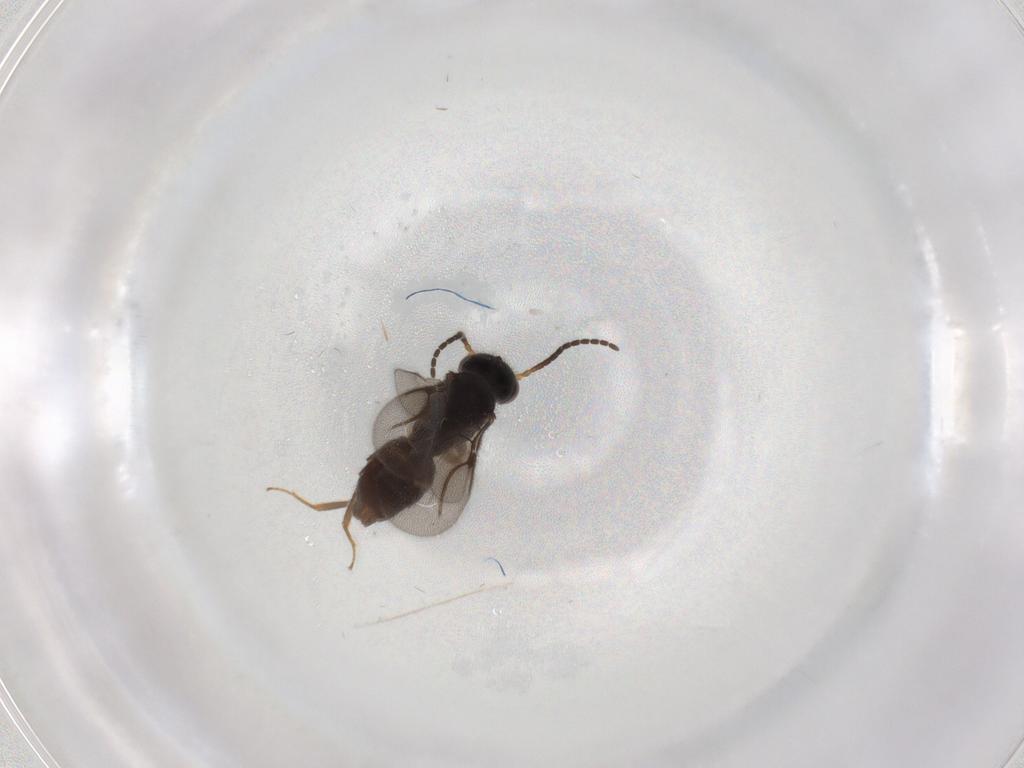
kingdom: Animalia
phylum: Arthropoda
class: Insecta
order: Hymenoptera
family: Bethylidae
